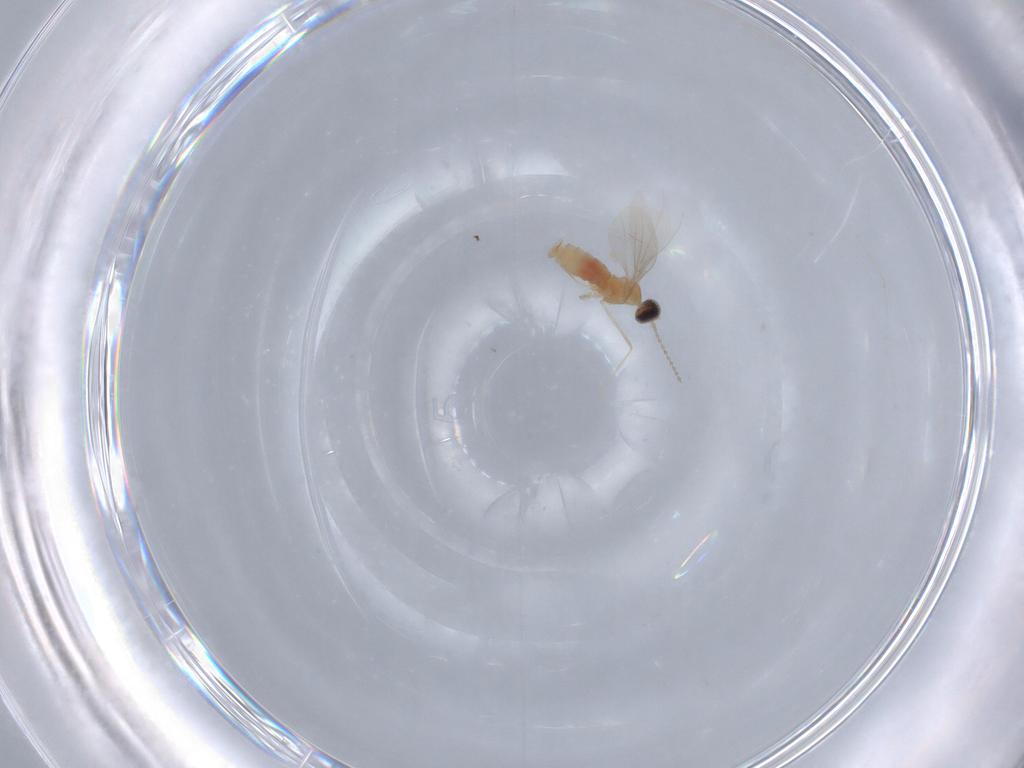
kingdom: Animalia
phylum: Arthropoda
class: Insecta
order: Diptera
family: Cecidomyiidae
